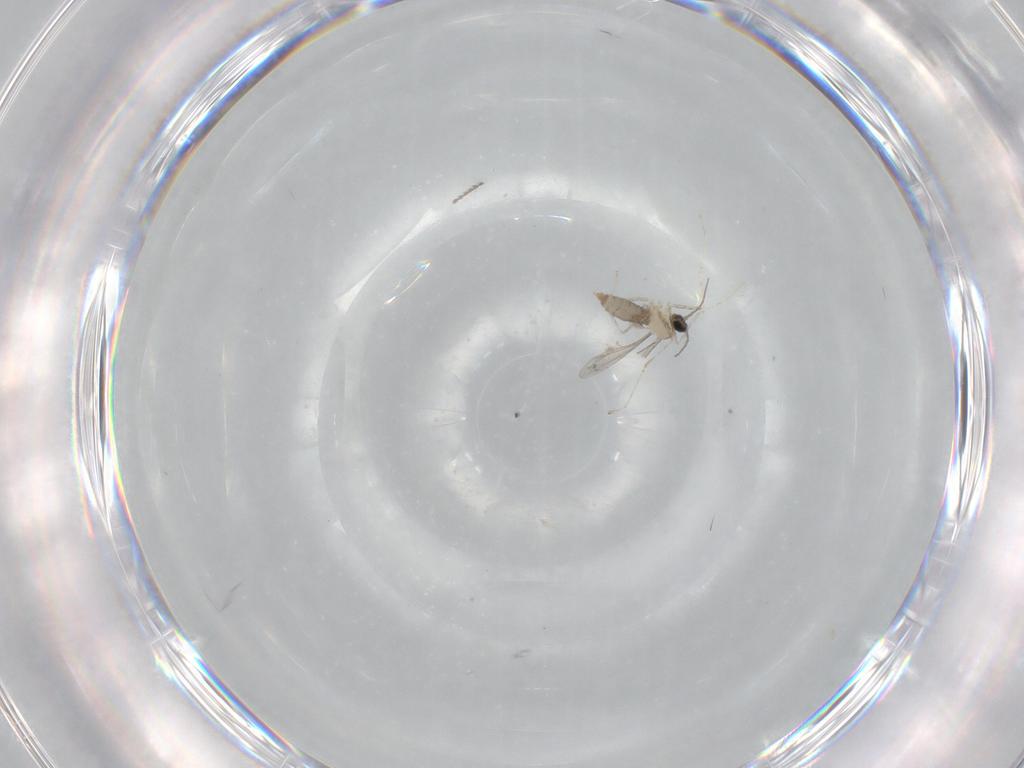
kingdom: Animalia
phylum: Arthropoda
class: Insecta
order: Diptera
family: Cecidomyiidae
